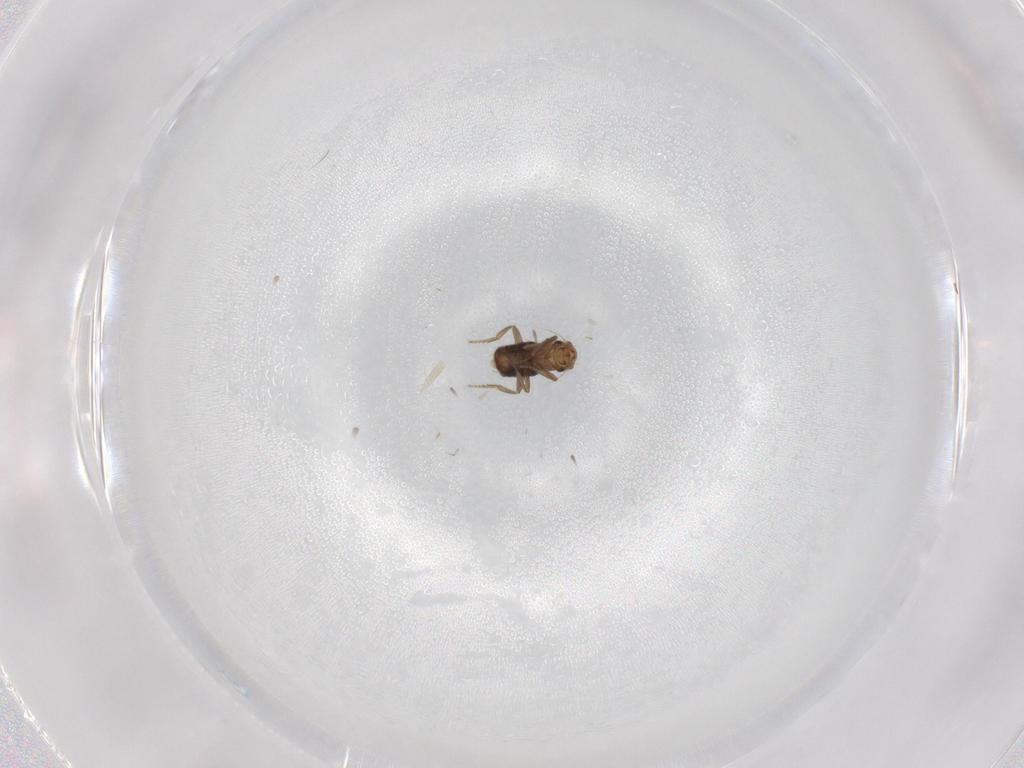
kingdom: Animalia
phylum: Arthropoda
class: Insecta
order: Diptera
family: Phoridae
